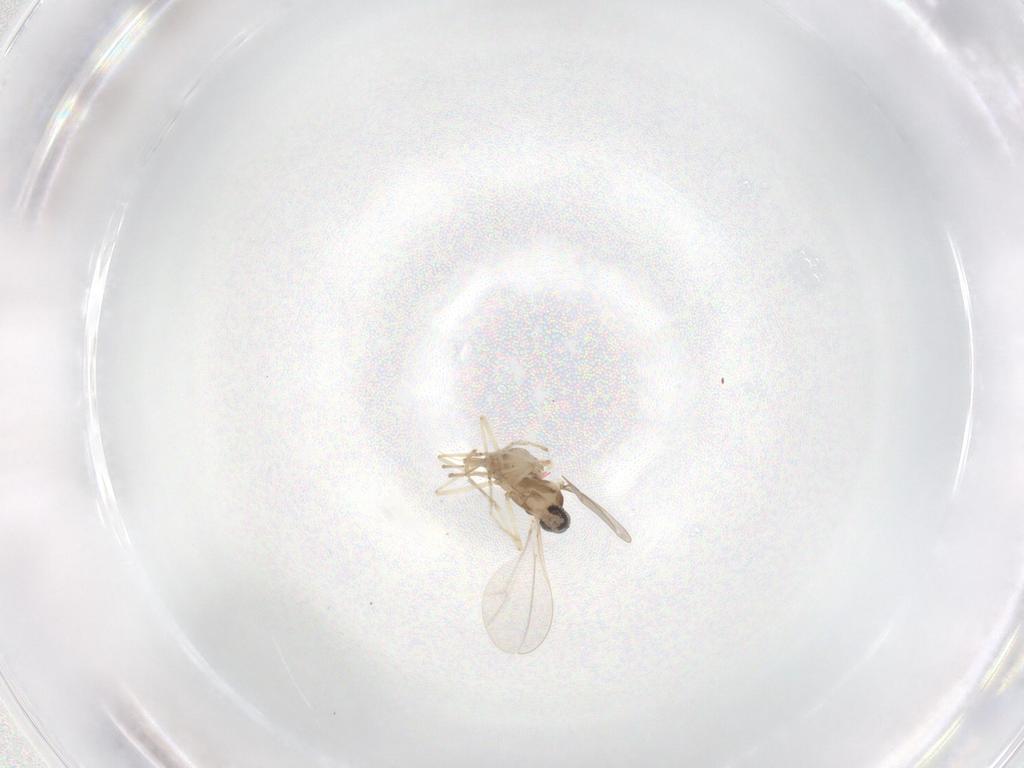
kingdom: Animalia
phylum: Arthropoda
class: Insecta
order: Diptera
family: Cecidomyiidae
